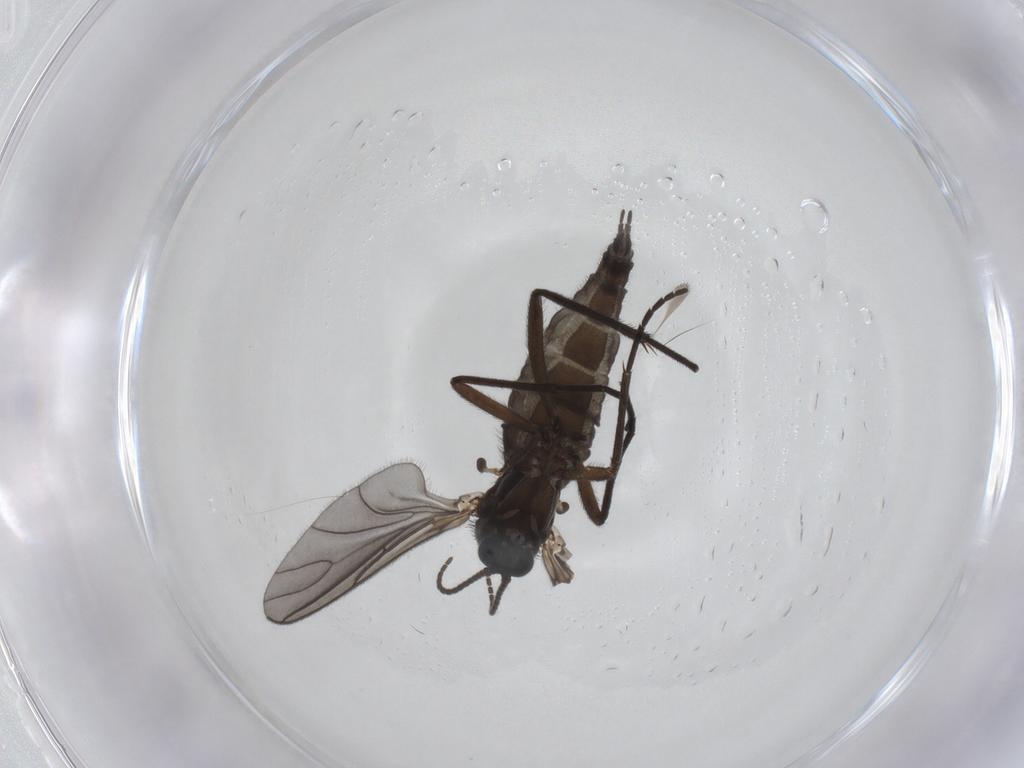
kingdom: Animalia
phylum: Arthropoda
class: Insecta
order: Diptera
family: Sciaridae
